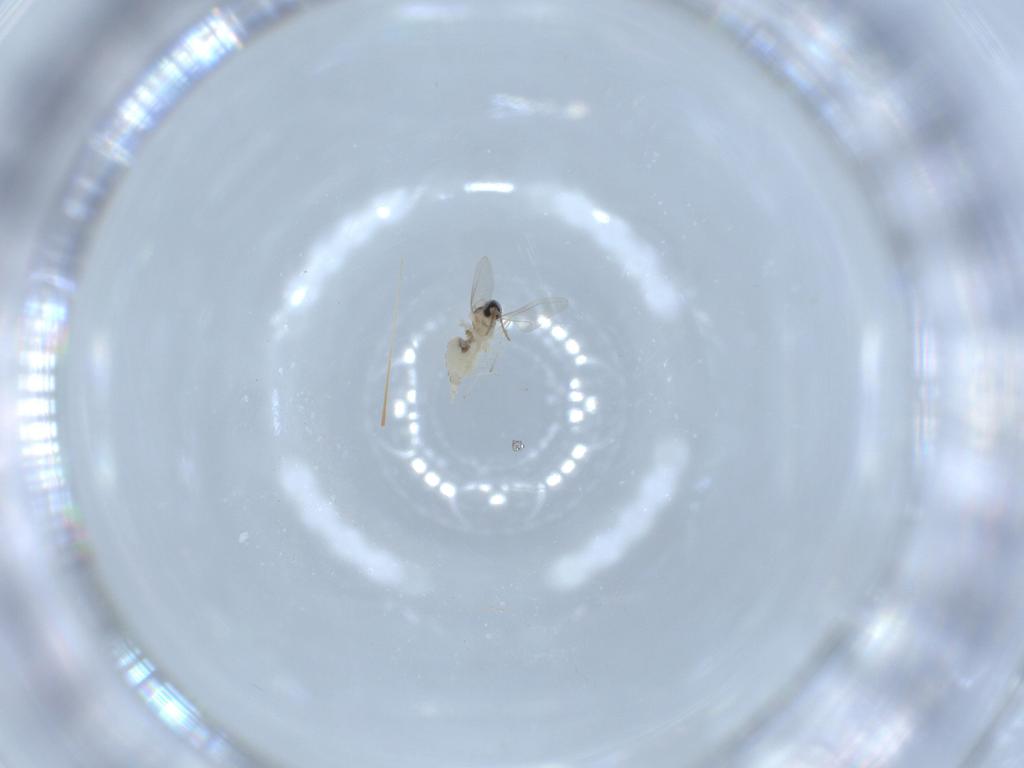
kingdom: Animalia
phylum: Arthropoda
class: Insecta
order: Diptera
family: Cecidomyiidae
